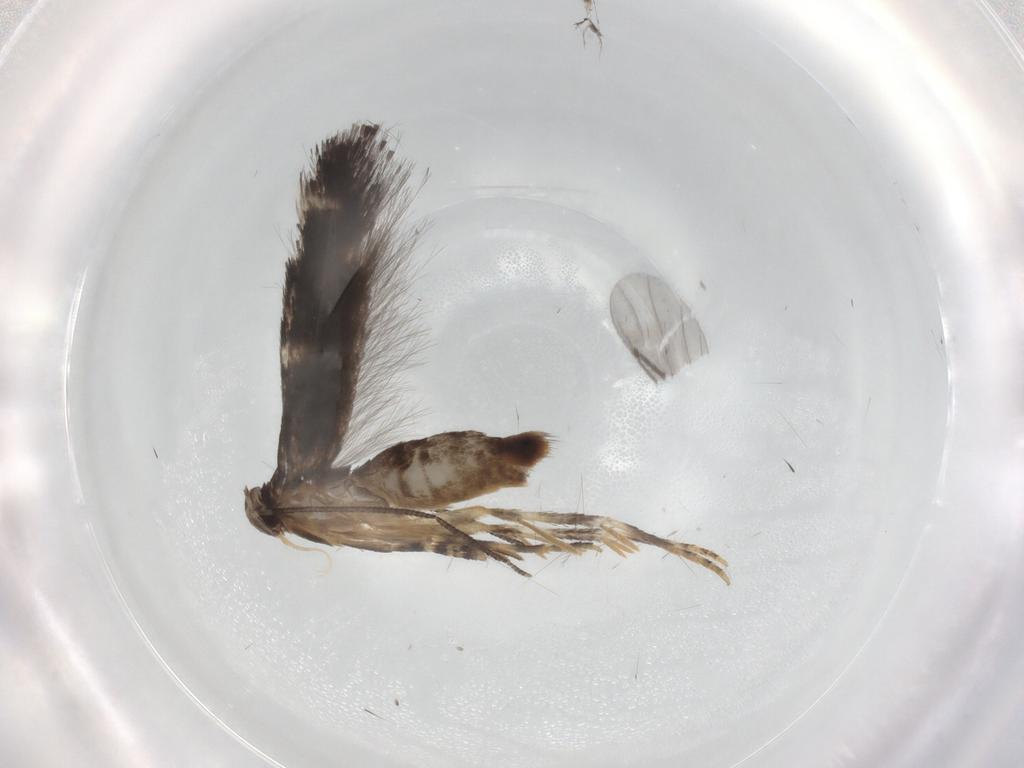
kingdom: Animalia
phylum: Arthropoda
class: Insecta
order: Lepidoptera
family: Elachistidae
